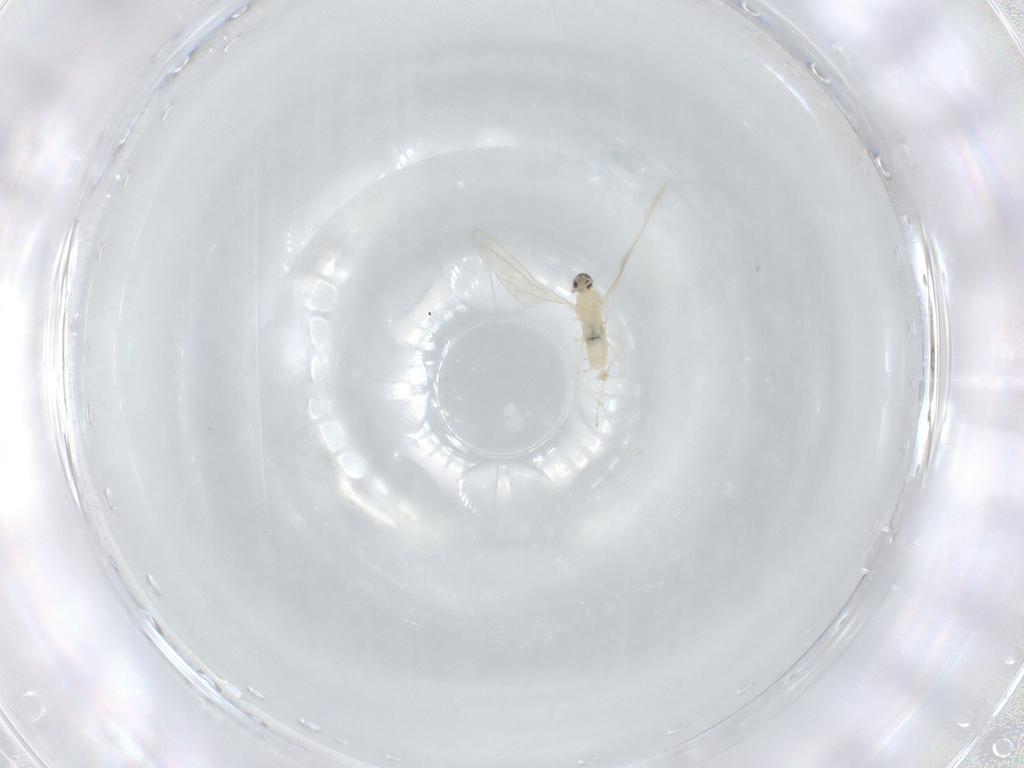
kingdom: Animalia
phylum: Arthropoda
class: Insecta
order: Diptera
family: Cecidomyiidae
